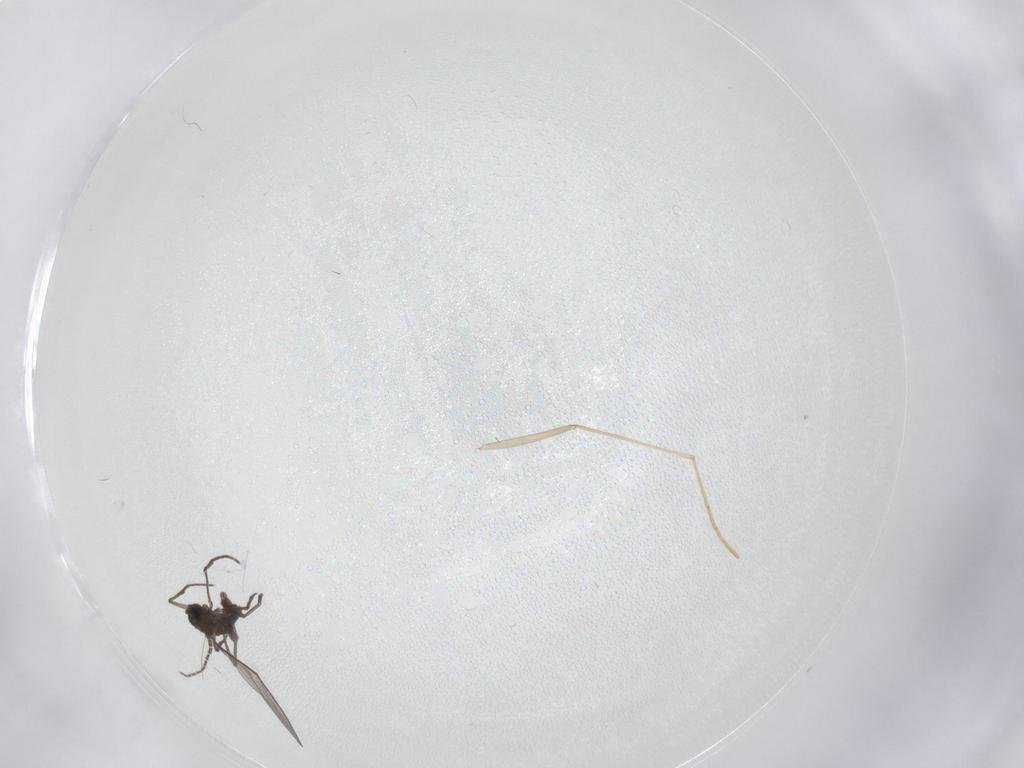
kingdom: Animalia
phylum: Arthropoda
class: Insecta
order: Diptera
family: Sciaridae
